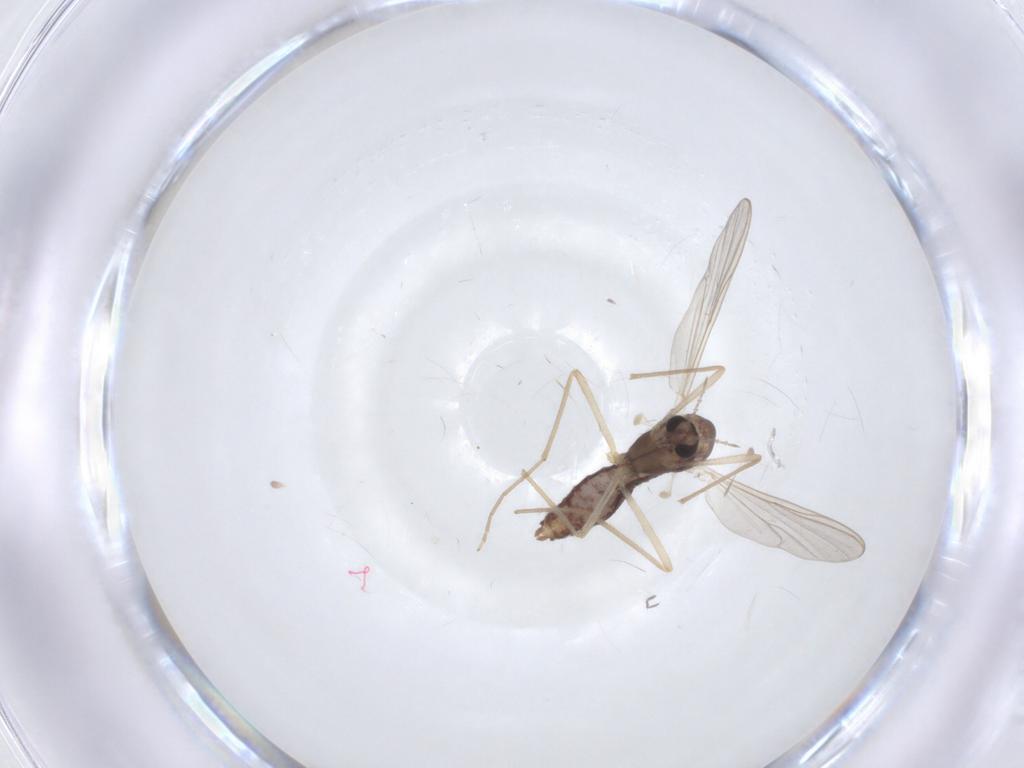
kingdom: Animalia
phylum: Arthropoda
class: Insecta
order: Diptera
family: Chironomidae
